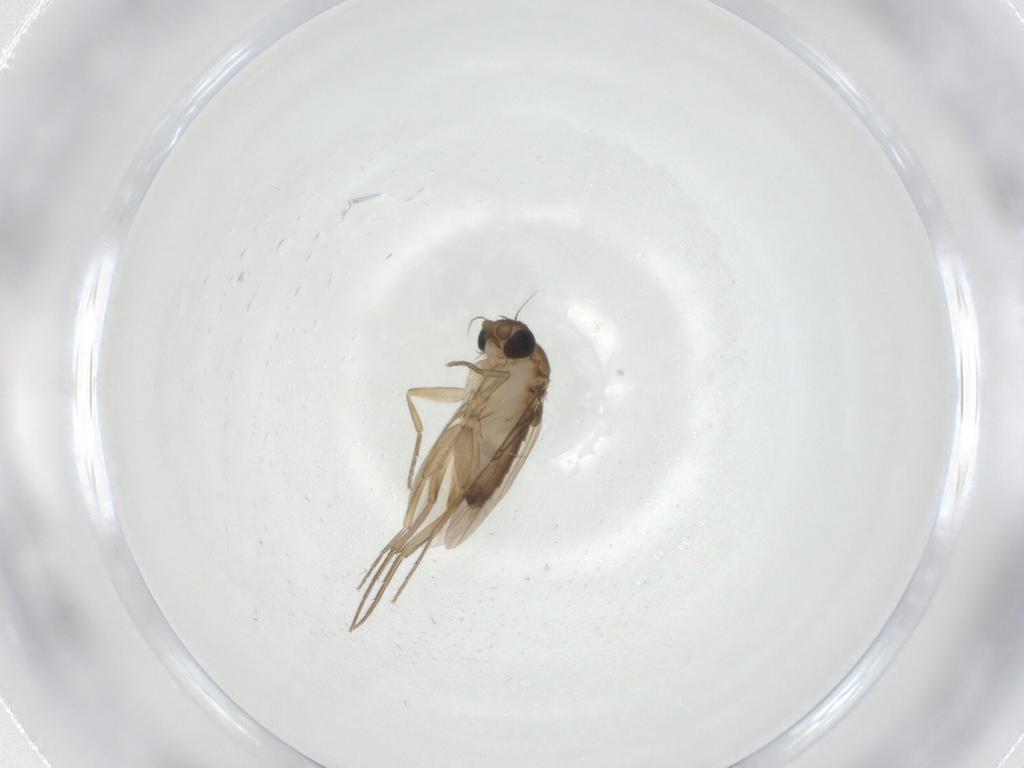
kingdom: Animalia
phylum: Arthropoda
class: Insecta
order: Diptera
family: Phoridae
